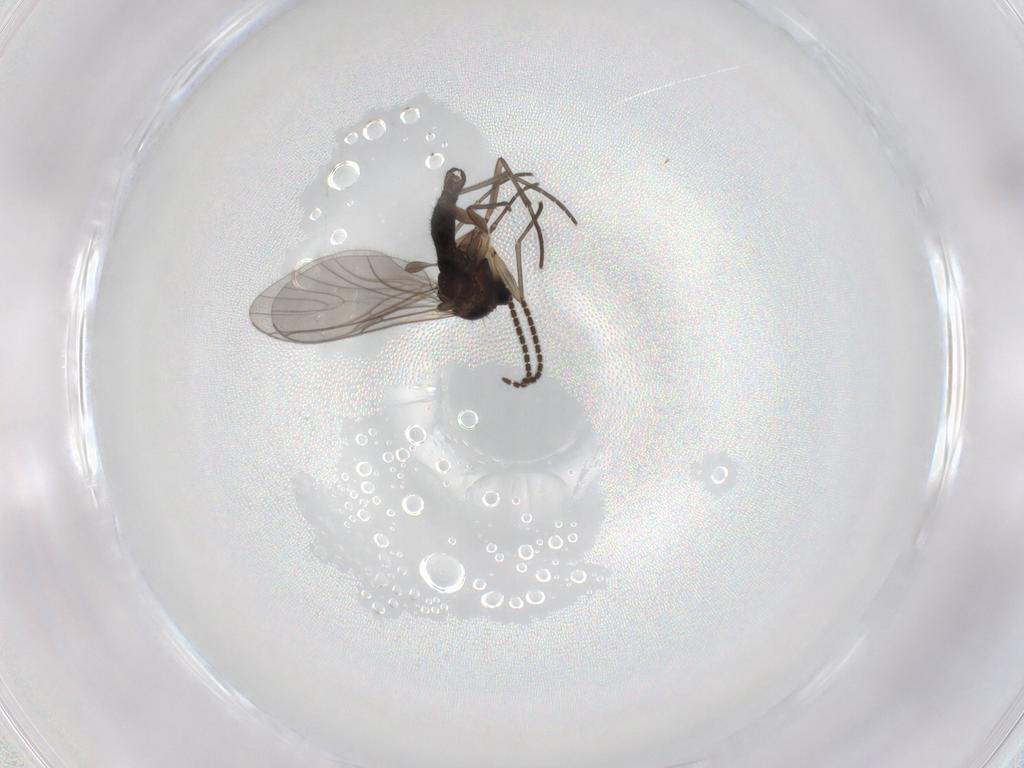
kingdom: Animalia
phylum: Arthropoda
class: Insecta
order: Diptera
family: Sciaridae
